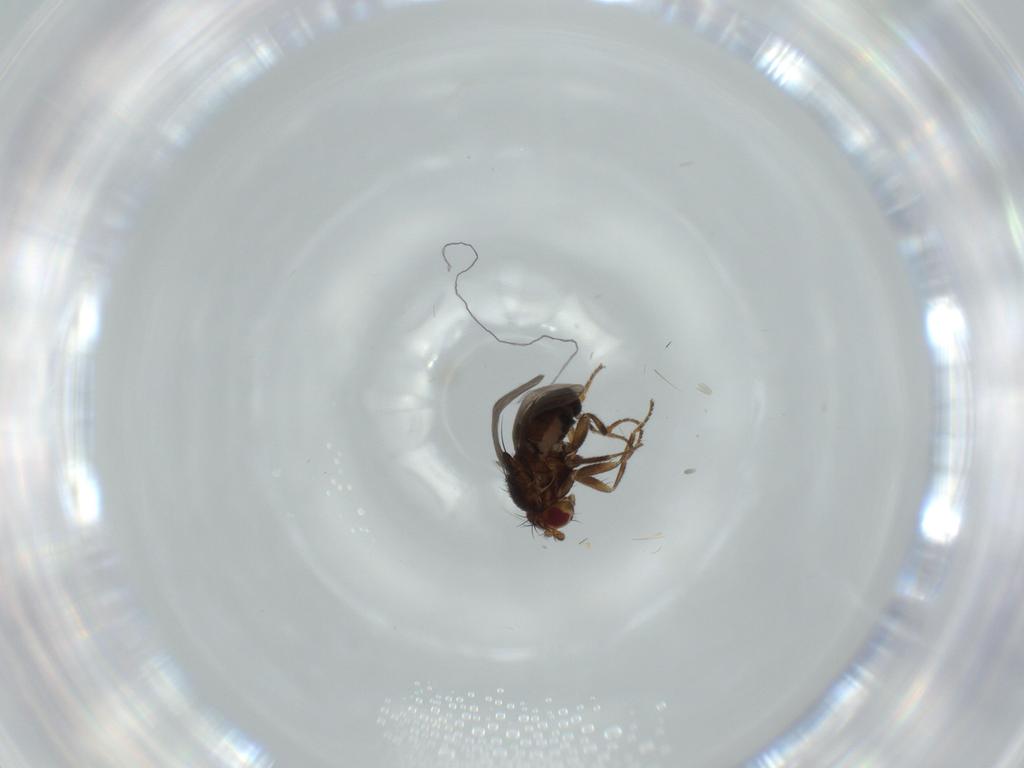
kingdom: Animalia
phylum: Arthropoda
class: Insecta
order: Diptera
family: Sphaeroceridae
